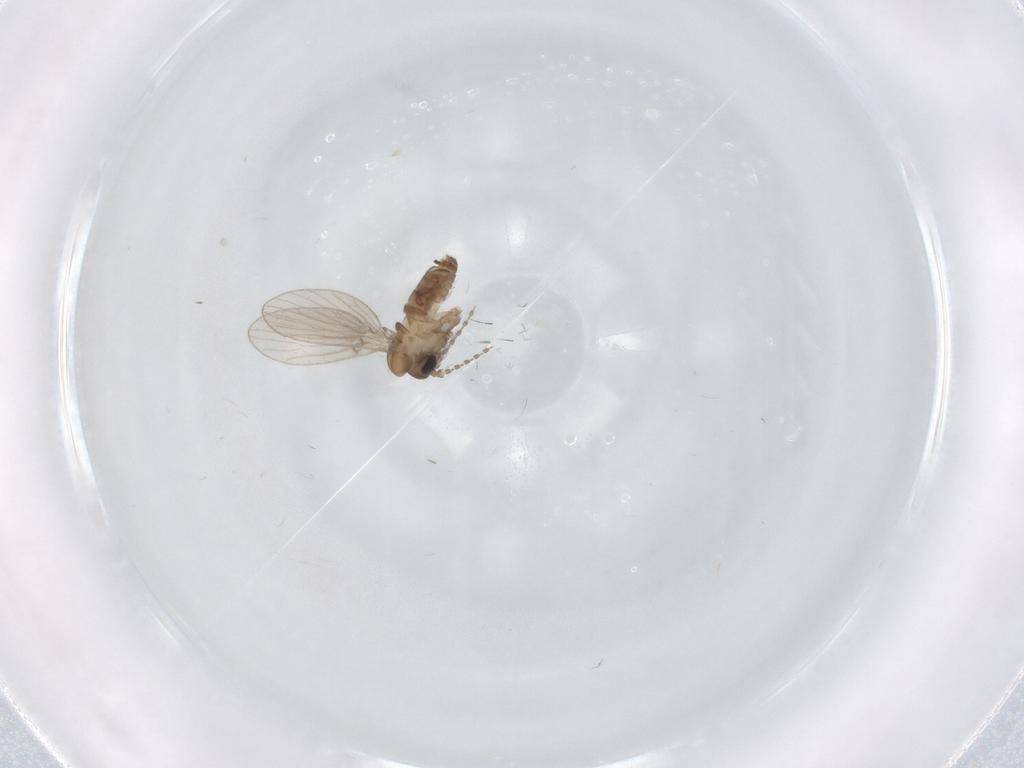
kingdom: Animalia
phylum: Arthropoda
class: Insecta
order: Diptera
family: Psychodidae
